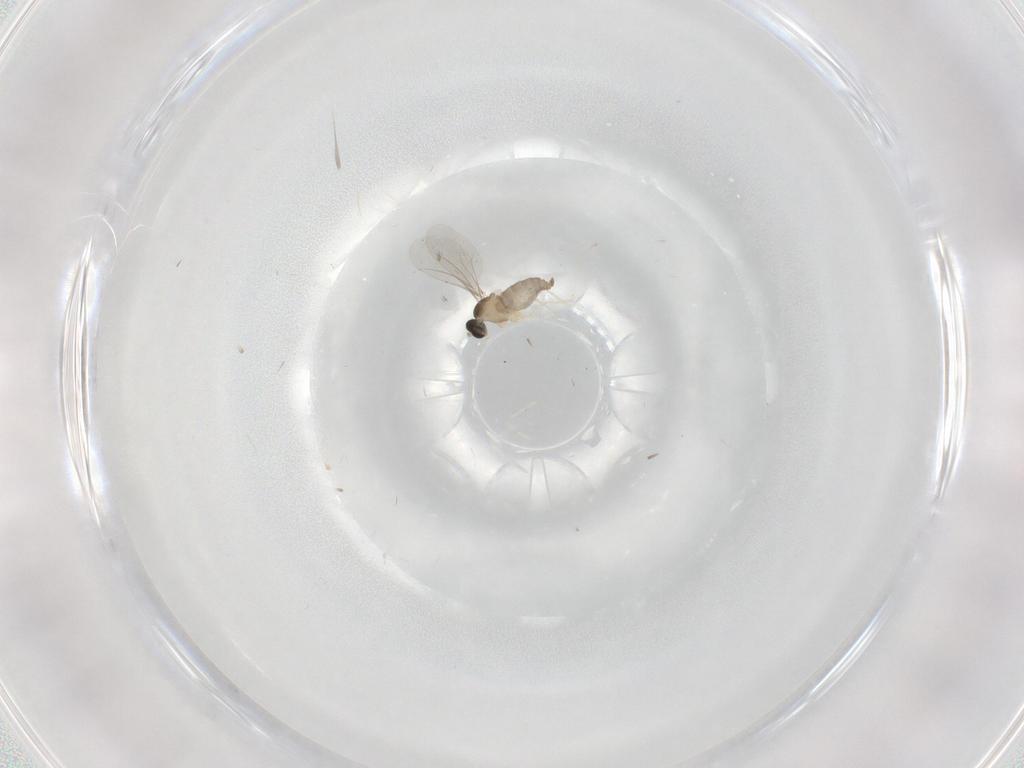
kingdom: Animalia
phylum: Arthropoda
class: Insecta
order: Diptera
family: Cecidomyiidae
